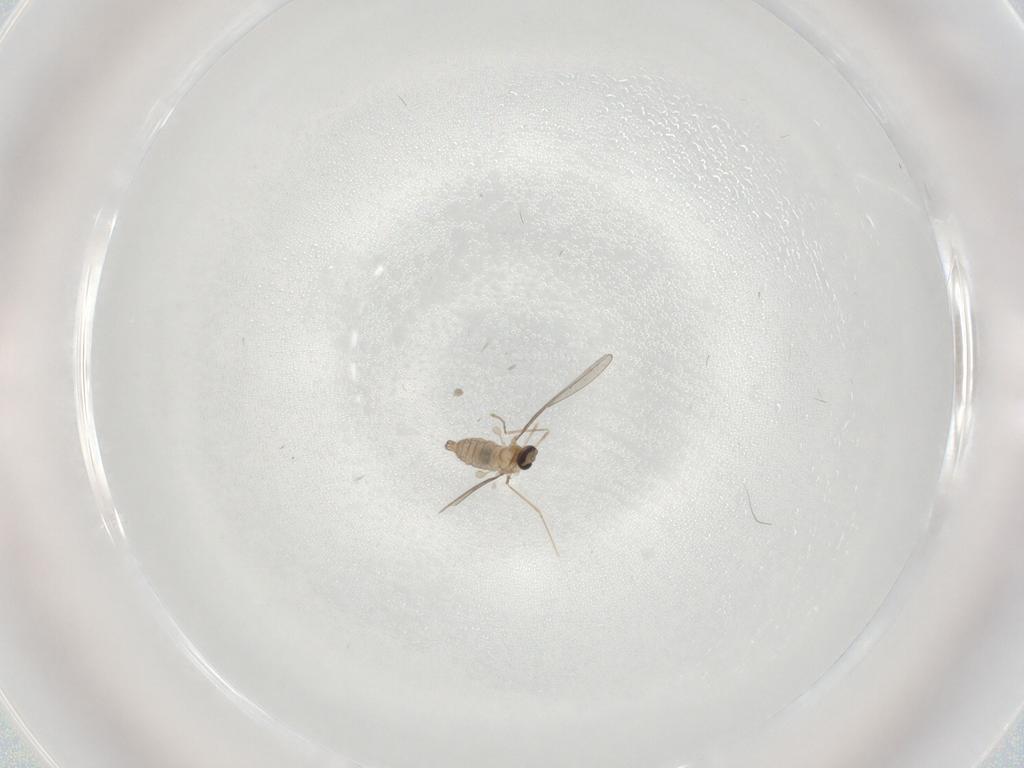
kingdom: Animalia
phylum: Arthropoda
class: Insecta
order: Diptera
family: Cecidomyiidae
